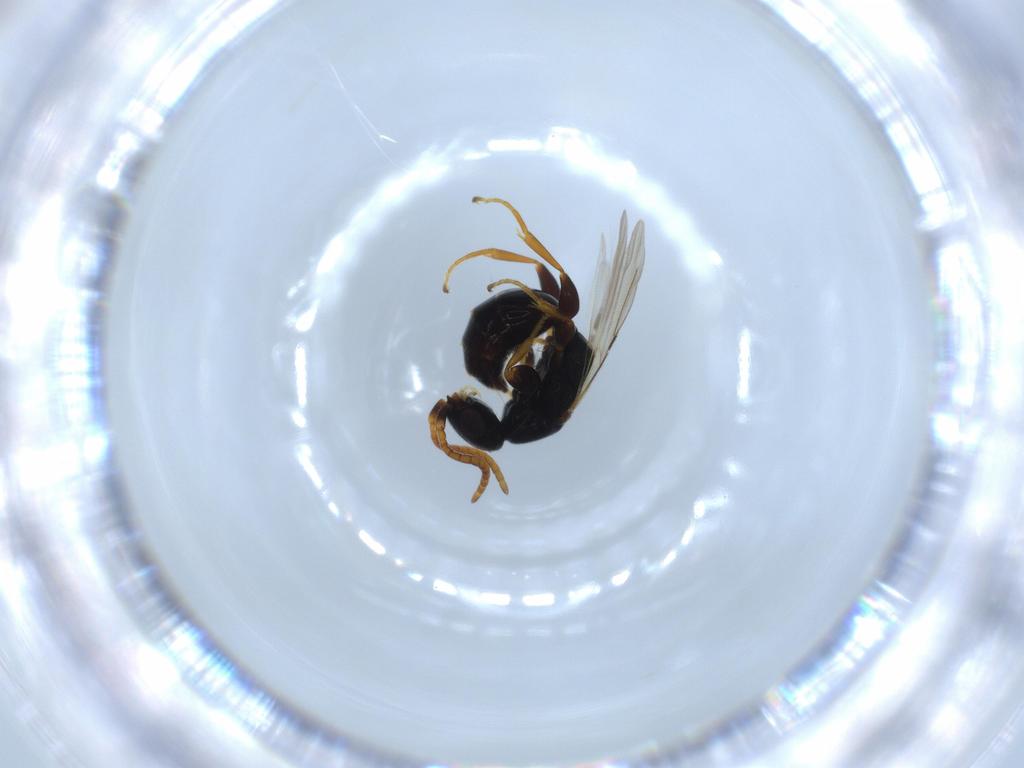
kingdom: Animalia
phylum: Arthropoda
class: Insecta
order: Hymenoptera
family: Bethylidae
